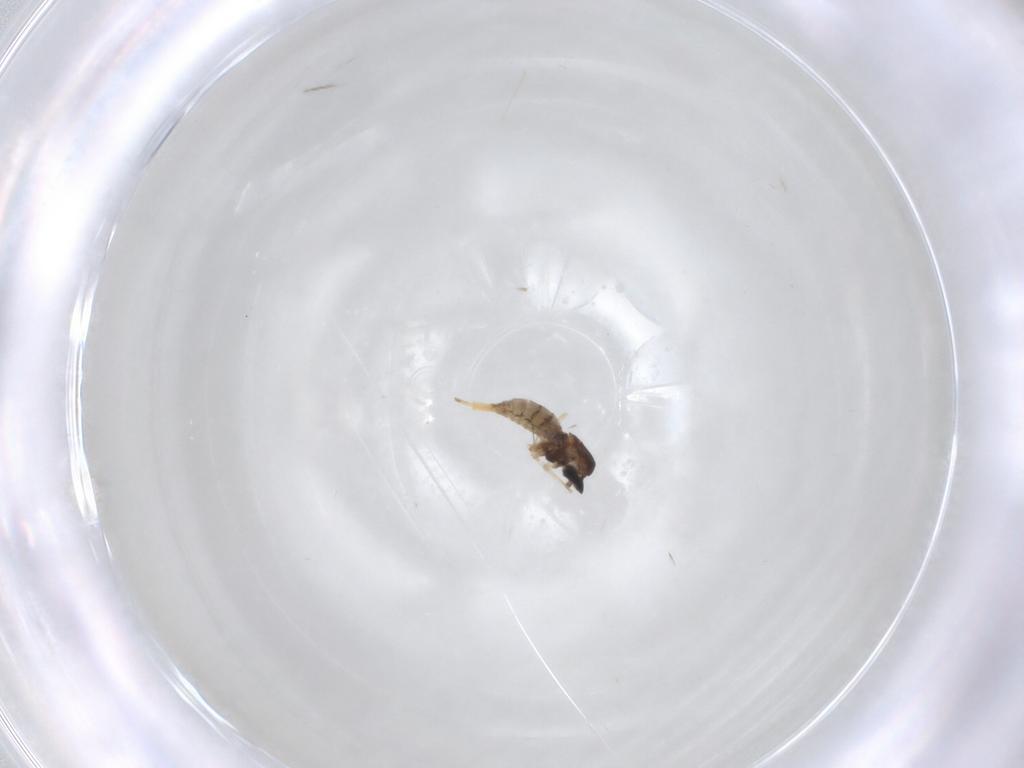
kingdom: Animalia
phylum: Arthropoda
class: Insecta
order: Diptera
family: Cecidomyiidae
